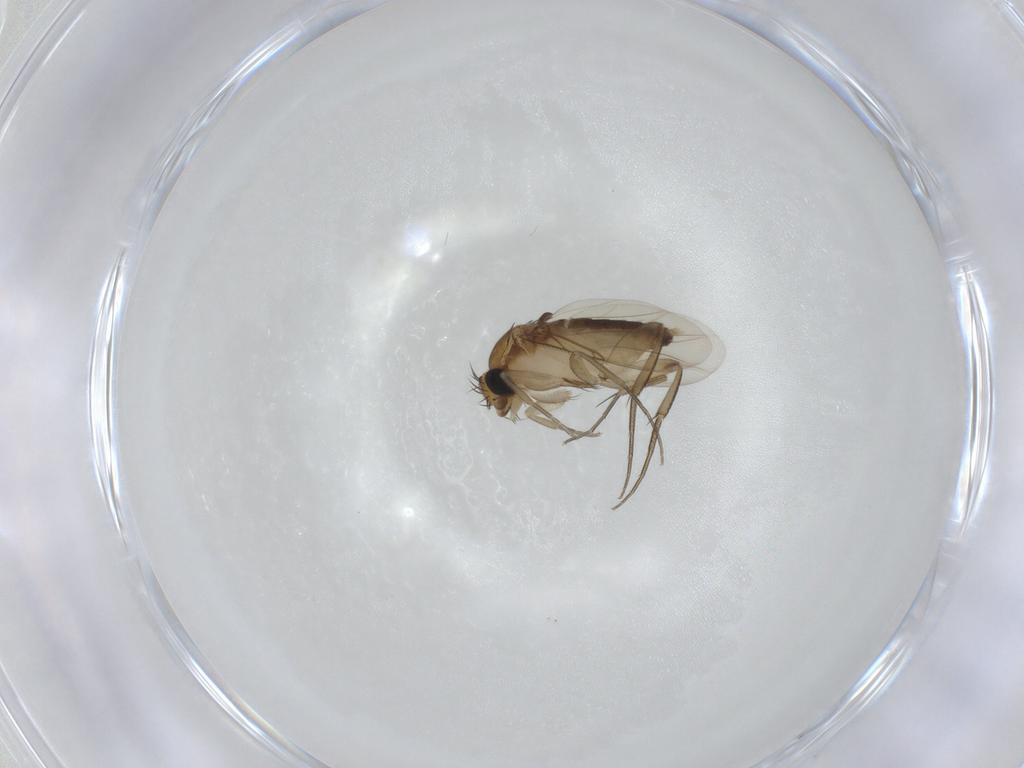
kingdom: Animalia
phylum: Arthropoda
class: Insecta
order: Diptera
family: Phoridae
